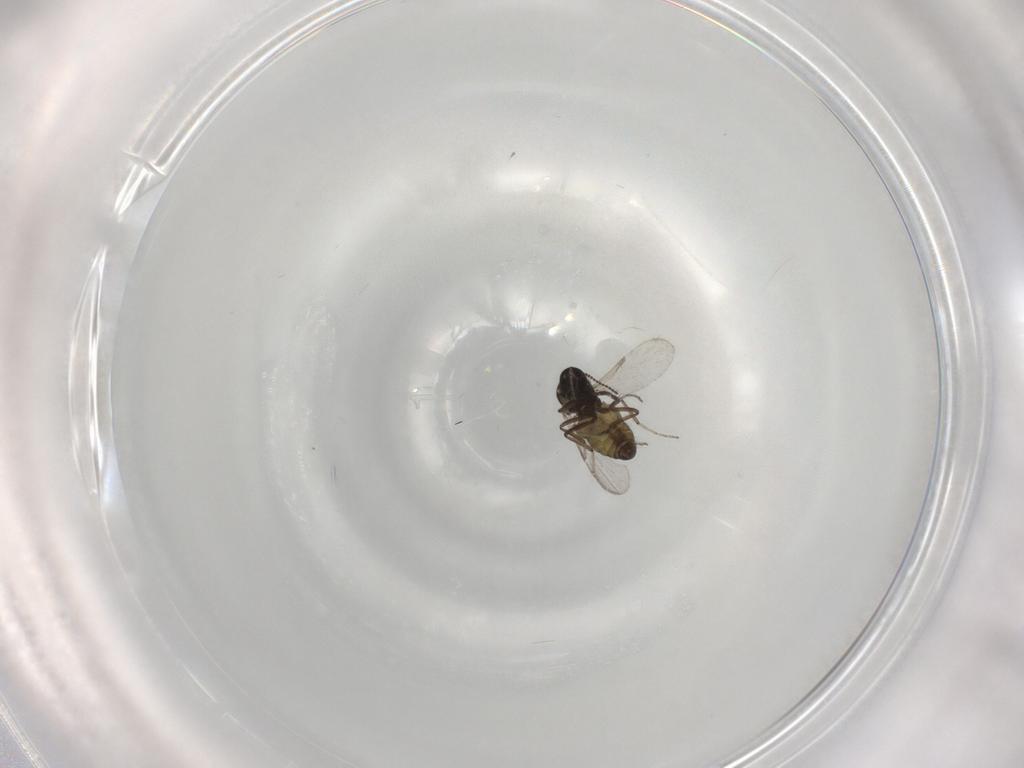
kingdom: Animalia
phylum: Arthropoda
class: Insecta
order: Diptera
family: Ceratopogonidae
